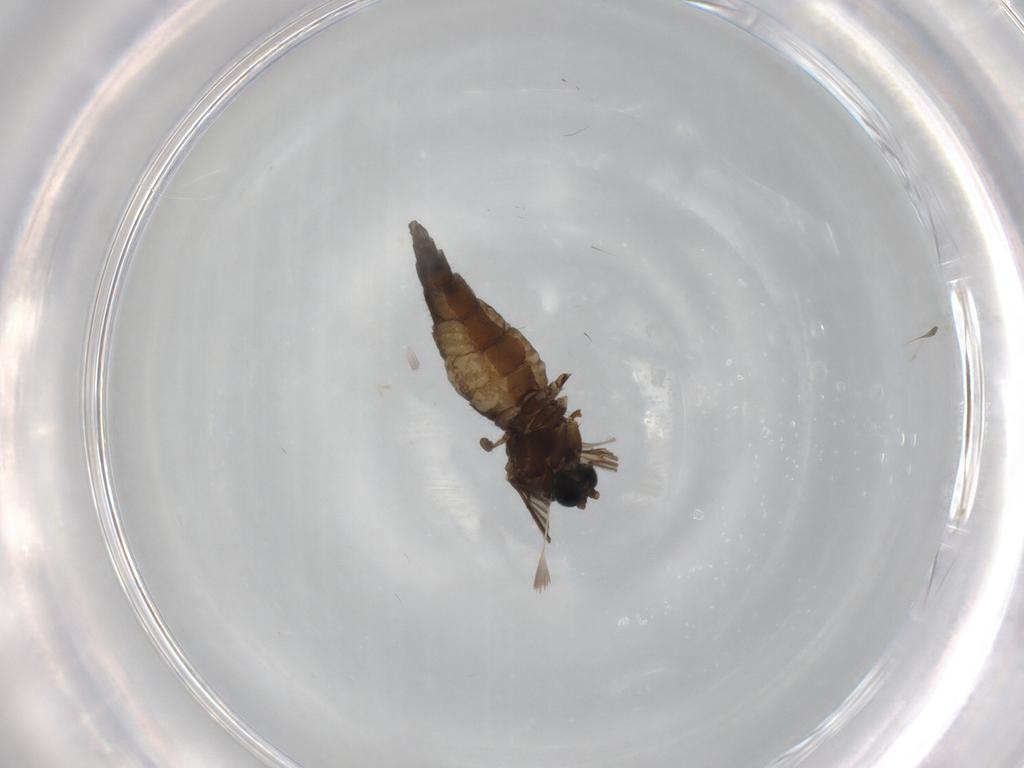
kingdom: Animalia
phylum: Arthropoda
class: Insecta
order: Diptera
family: Sciaridae
